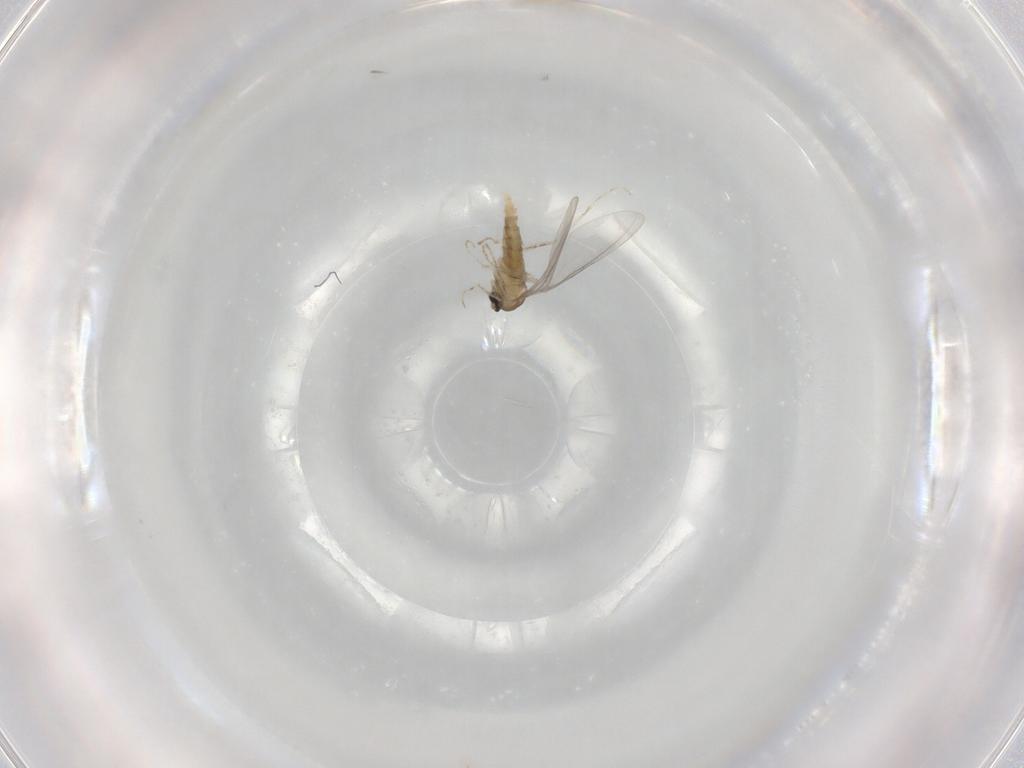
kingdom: Animalia
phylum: Arthropoda
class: Insecta
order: Diptera
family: Cecidomyiidae
